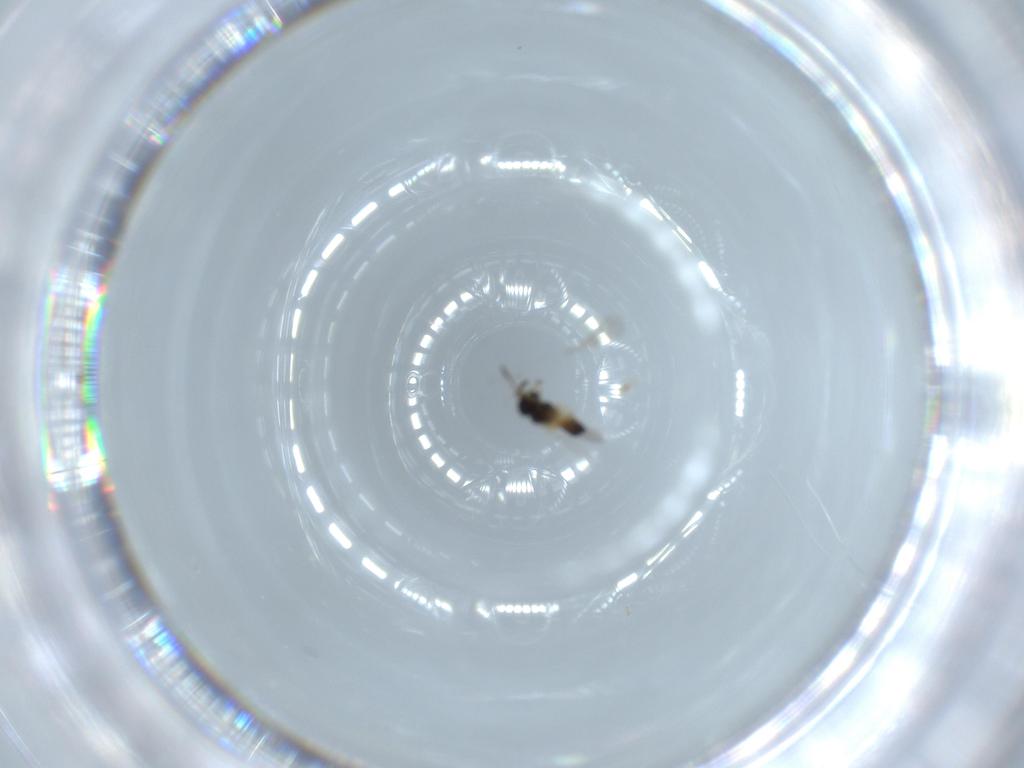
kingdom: Animalia
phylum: Arthropoda
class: Insecta
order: Hymenoptera
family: Scelionidae
